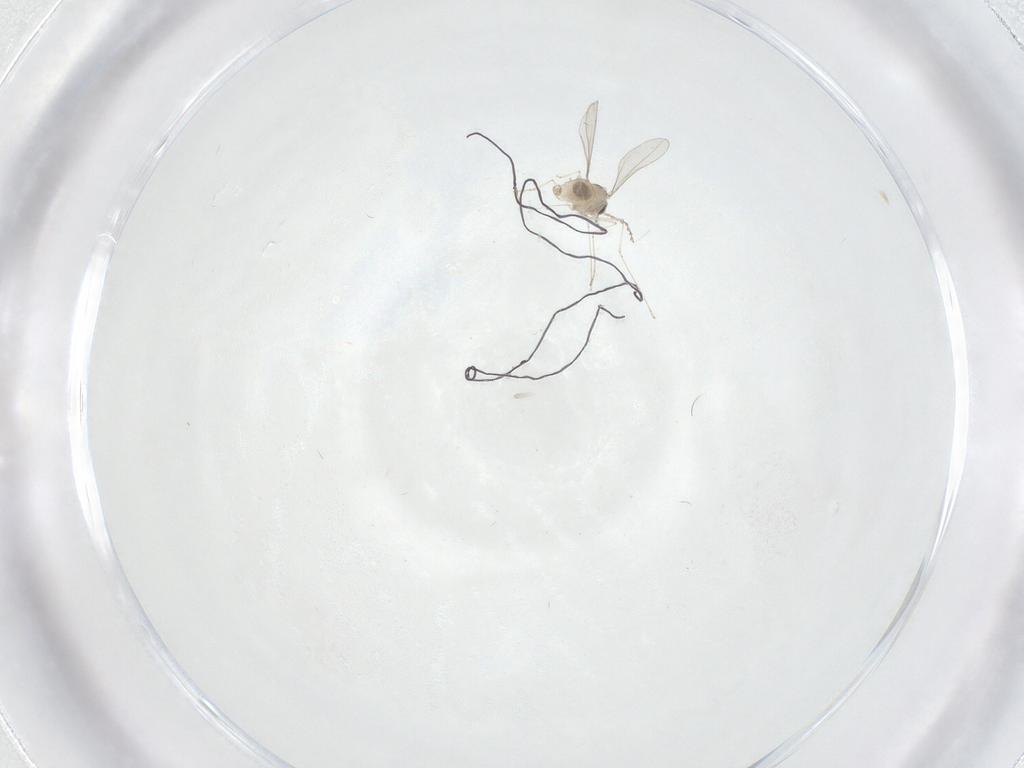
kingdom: Animalia
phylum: Arthropoda
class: Insecta
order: Diptera
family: Chironomidae
